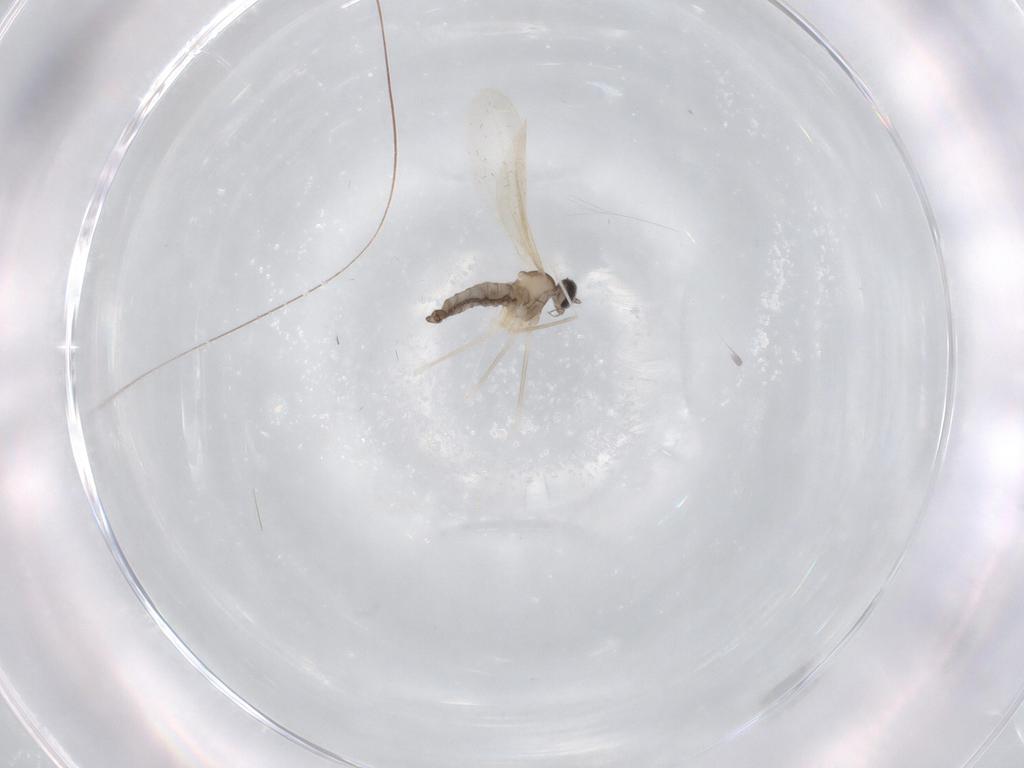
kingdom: Animalia
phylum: Arthropoda
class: Insecta
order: Diptera
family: Cecidomyiidae
